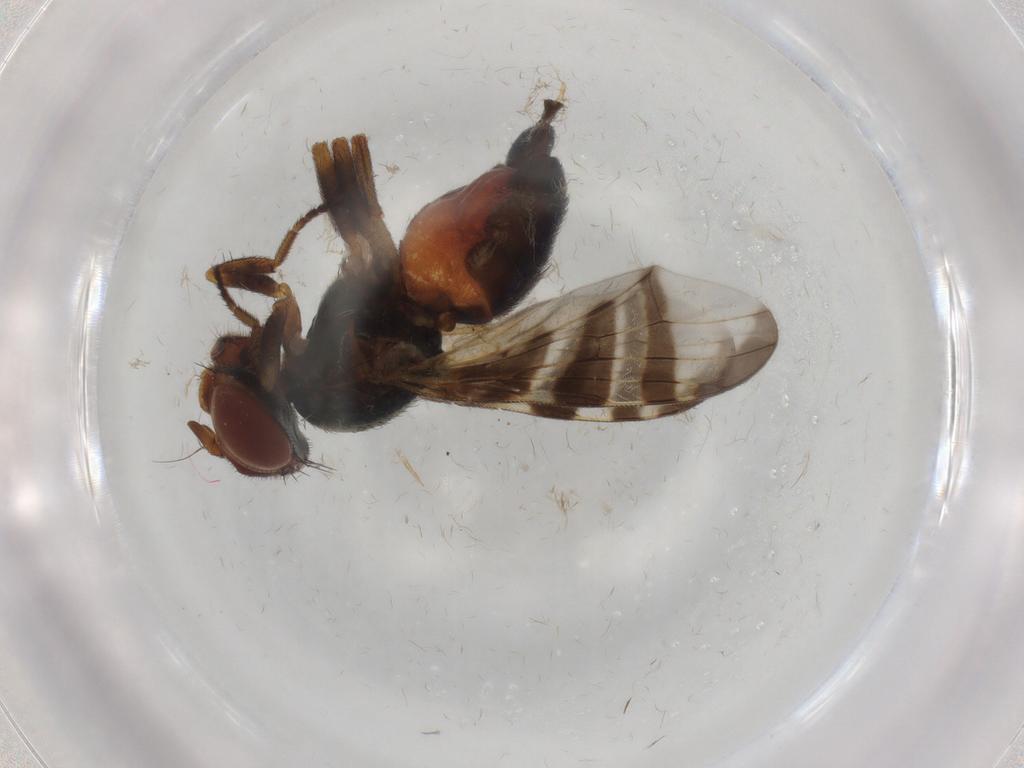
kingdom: Animalia
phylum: Arthropoda
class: Insecta
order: Diptera
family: Platystomatidae
